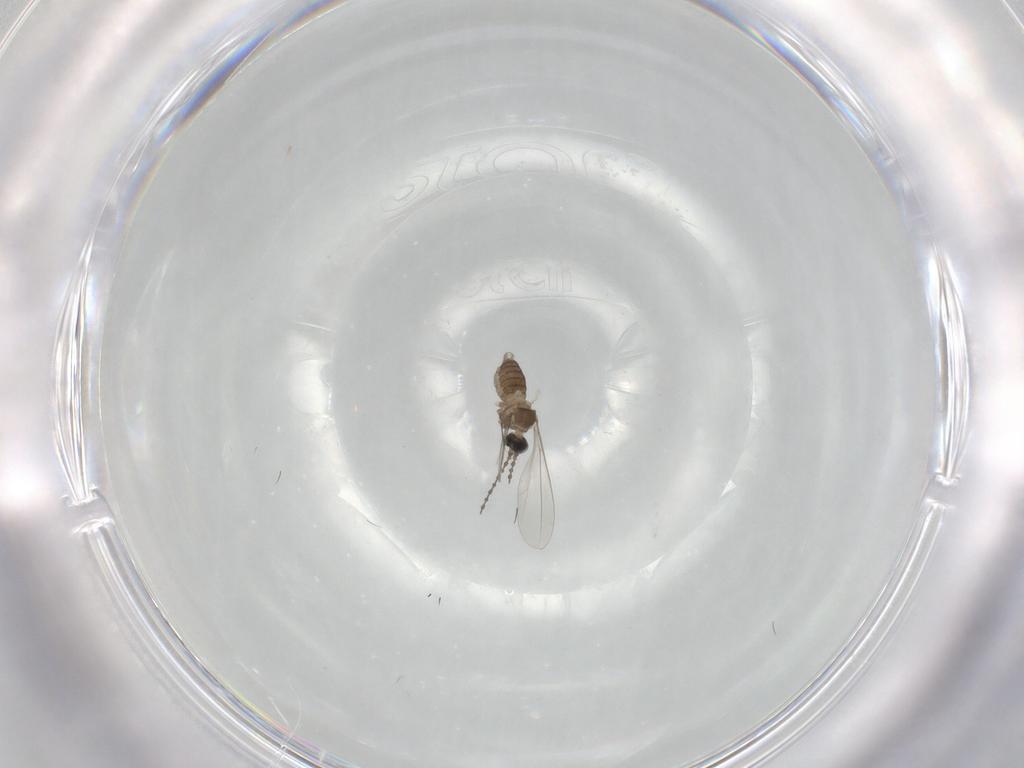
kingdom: Animalia
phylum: Arthropoda
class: Insecta
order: Diptera
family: Cecidomyiidae
